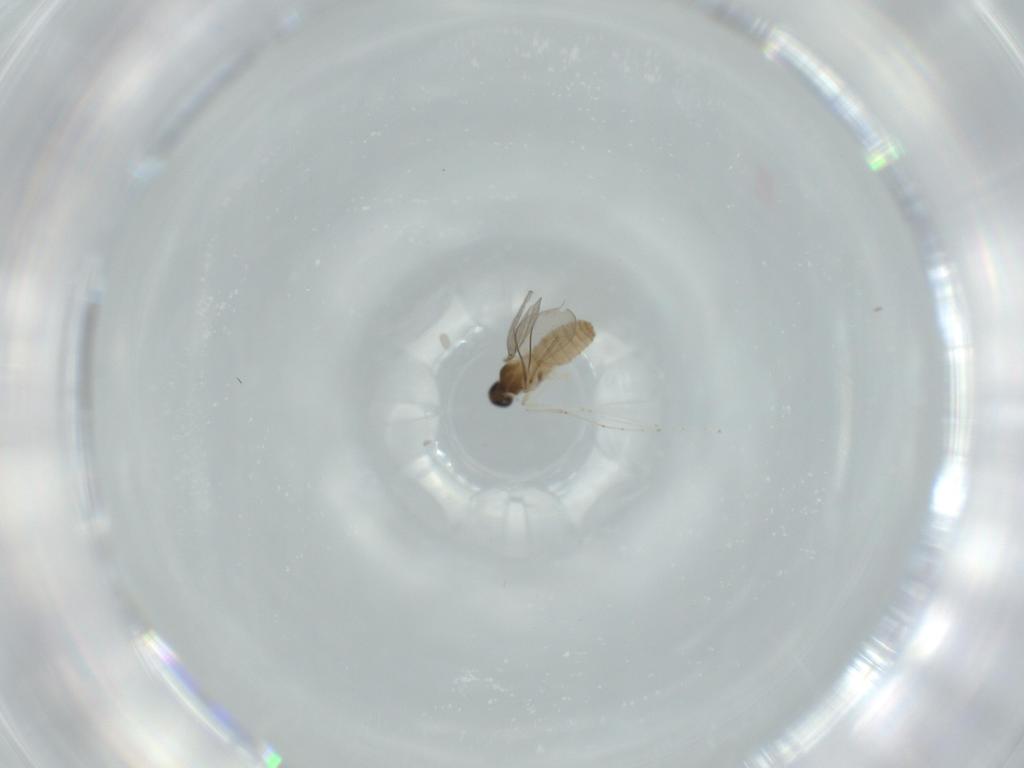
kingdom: Animalia
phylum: Arthropoda
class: Insecta
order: Diptera
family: Cecidomyiidae
